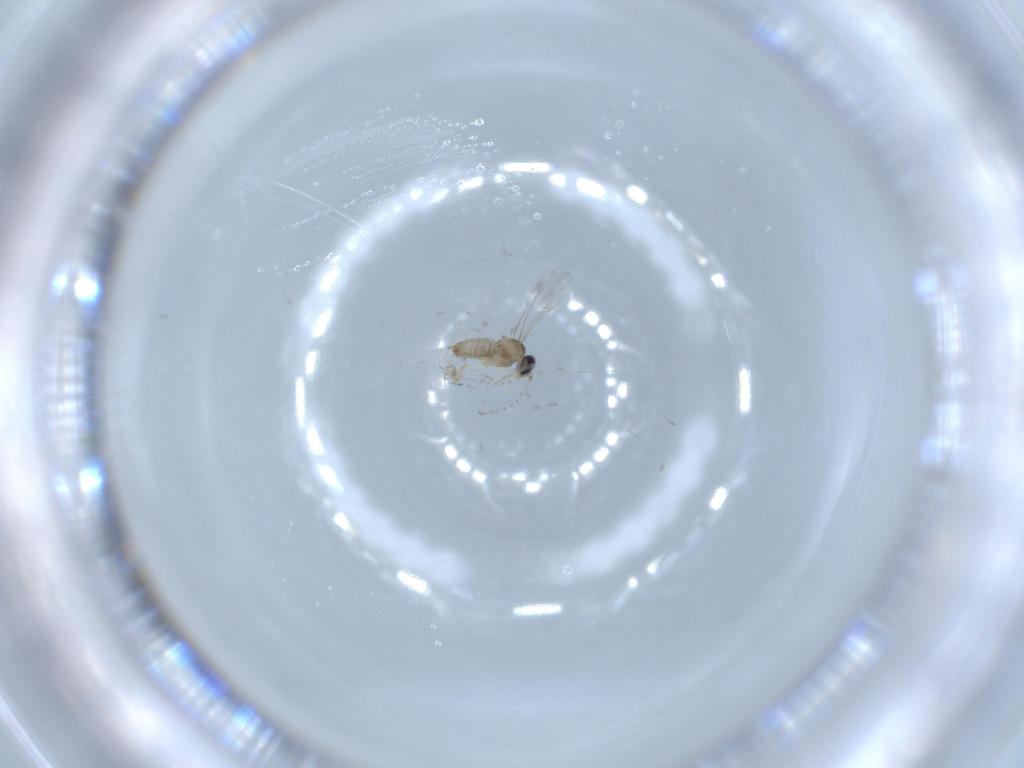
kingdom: Animalia
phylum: Arthropoda
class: Insecta
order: Diptera
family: Cecidomyiidae
